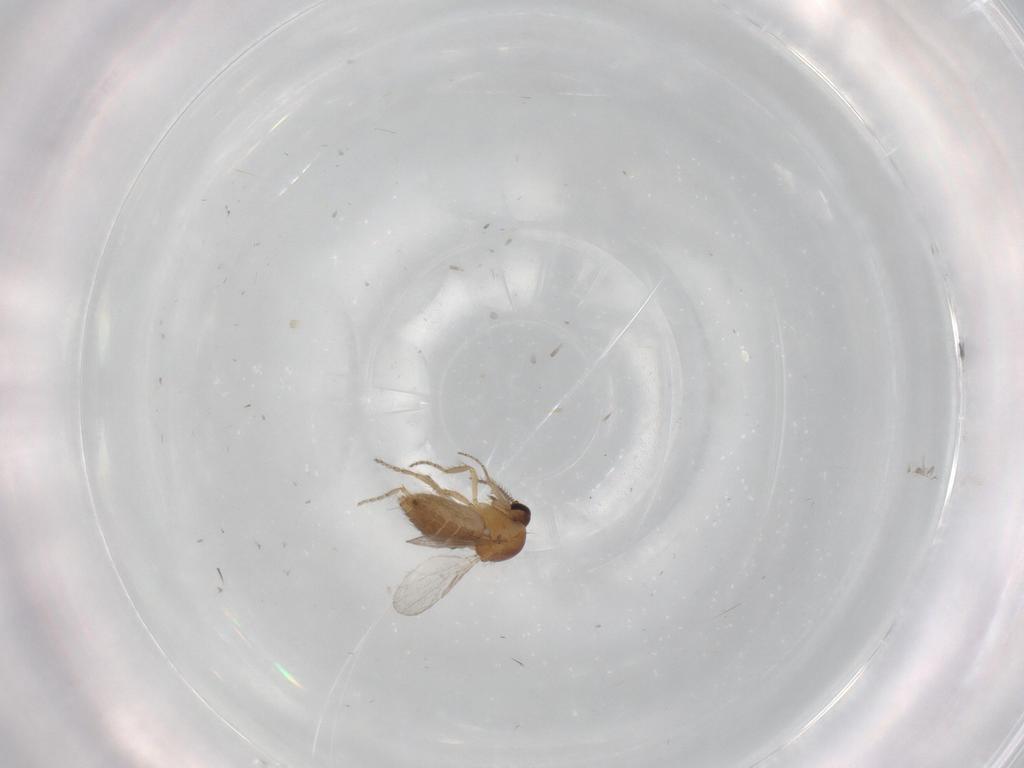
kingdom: Animalia
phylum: Arthropoda
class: Insecta
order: Diptera
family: Ceratopogonidae
